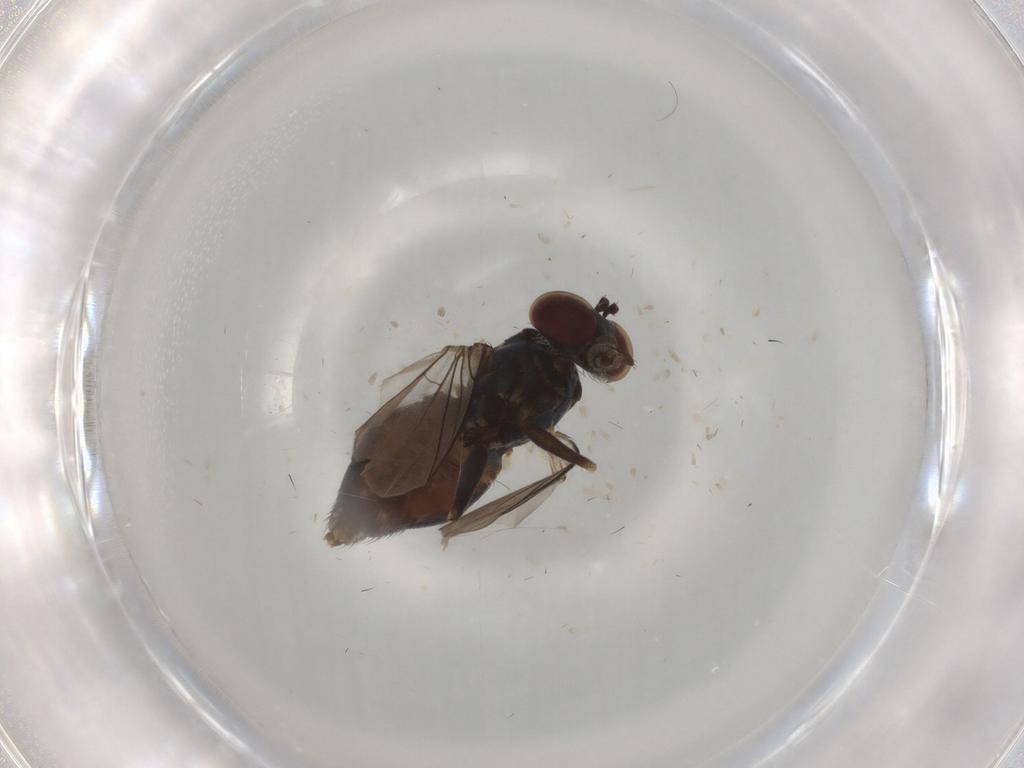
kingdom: Animalia
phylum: Arthropoda
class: Insecta
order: Diptera
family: Dolichopodidae
